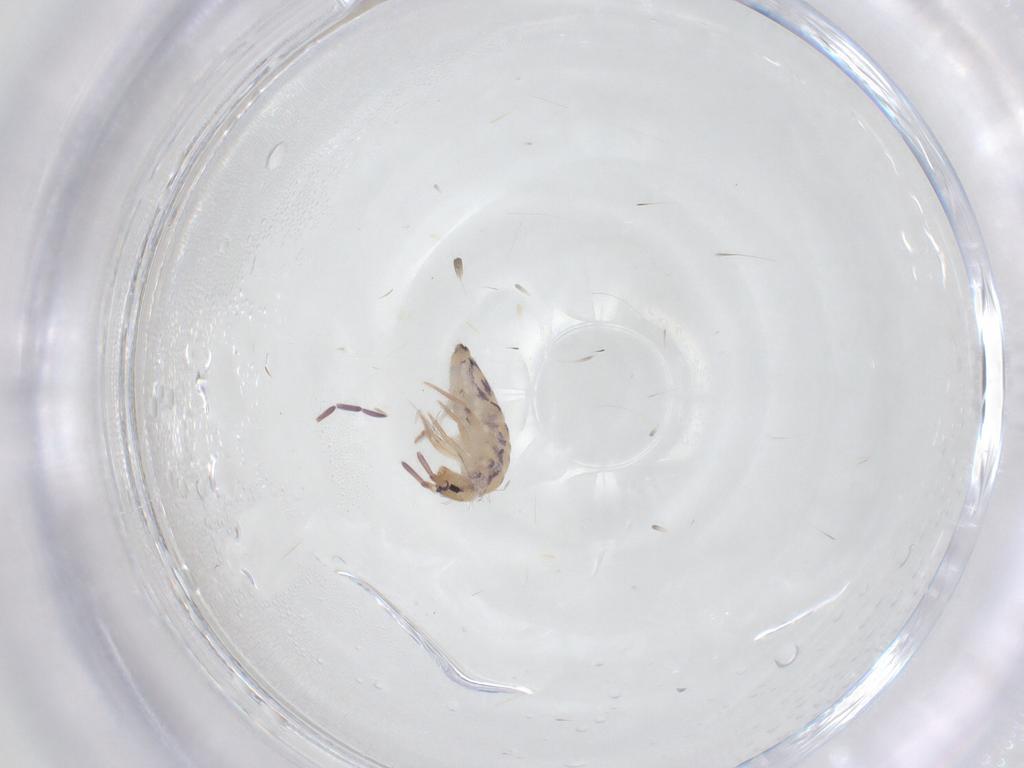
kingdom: Animalia
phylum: Arthropoda
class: Collembola
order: Entomobryomorpha
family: Entomobryidae
